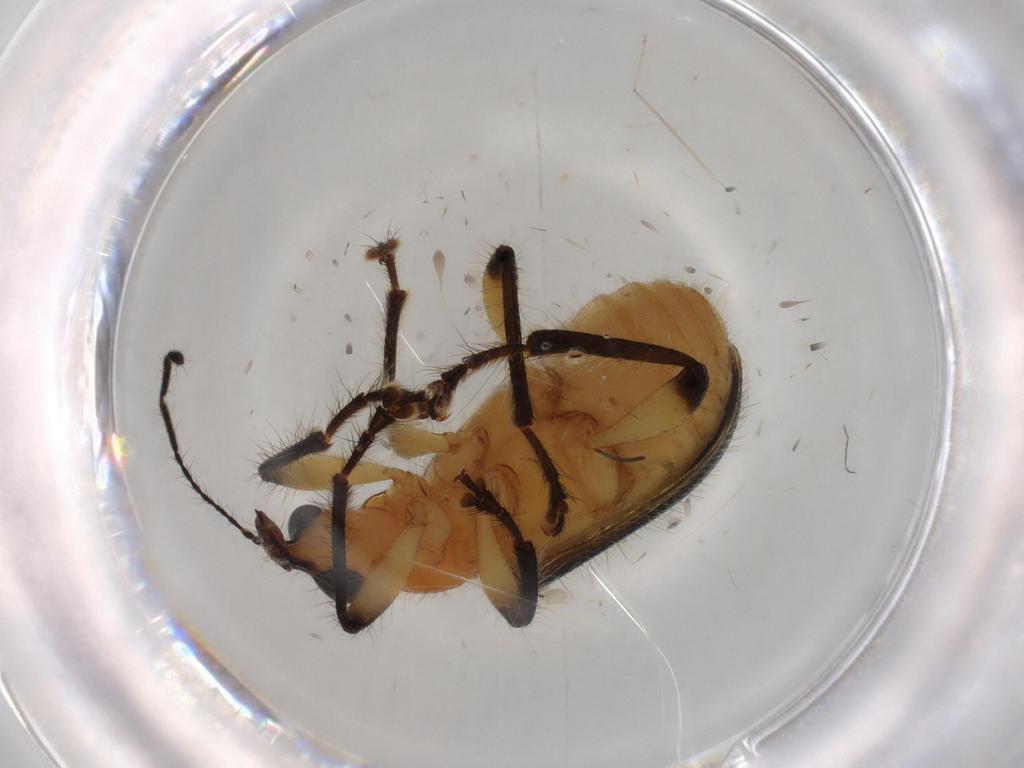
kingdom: Animalia
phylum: Arthropoda
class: Insecta
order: Coleoptera
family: Attelabidae
